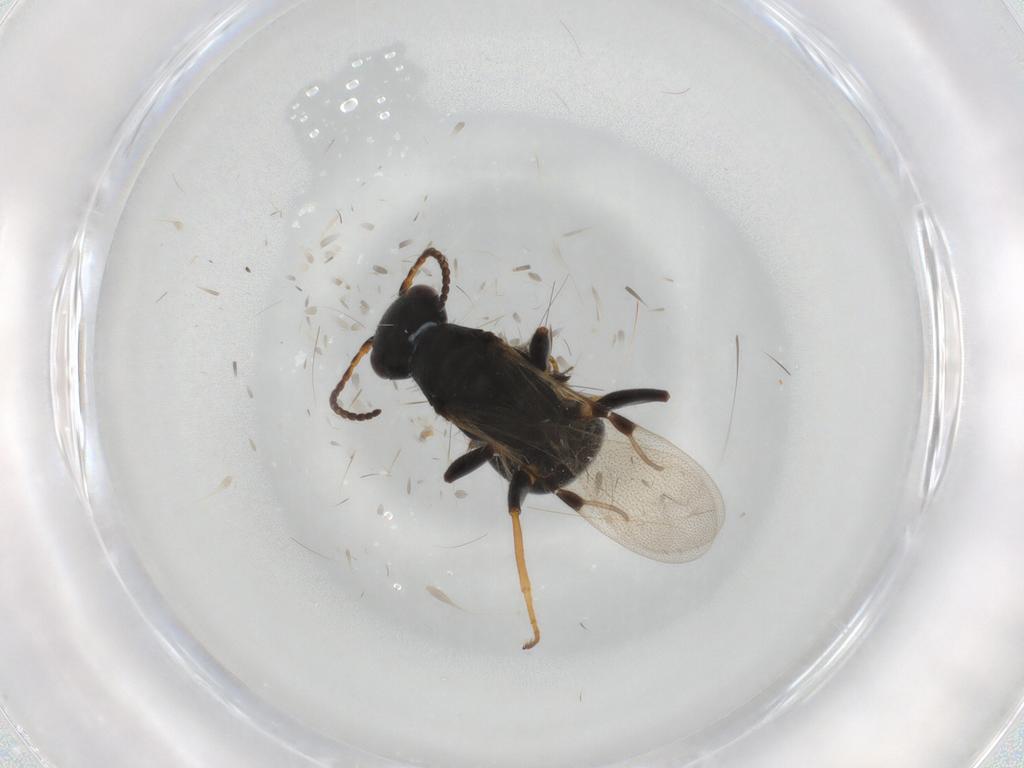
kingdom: Animalia
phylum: Arthropoda
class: Insecta
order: Hymenoptera
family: Bethylidae
